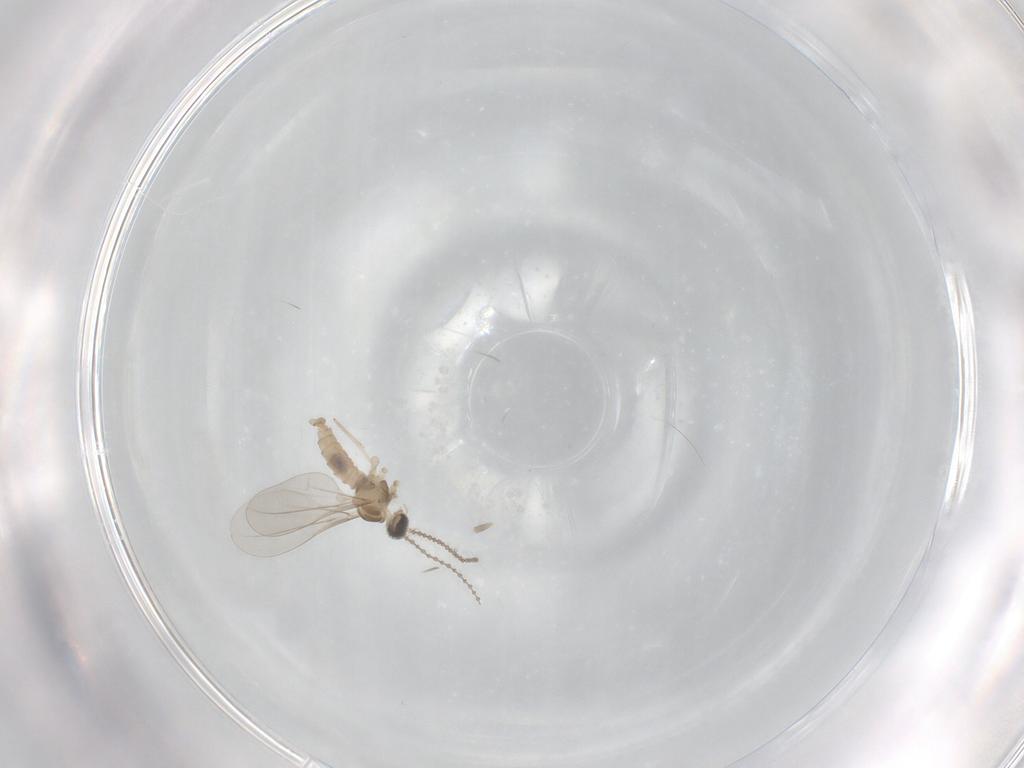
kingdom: Animalia
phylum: Arthropoda
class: Insecta
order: Diptera
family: Cecidomyiidae
